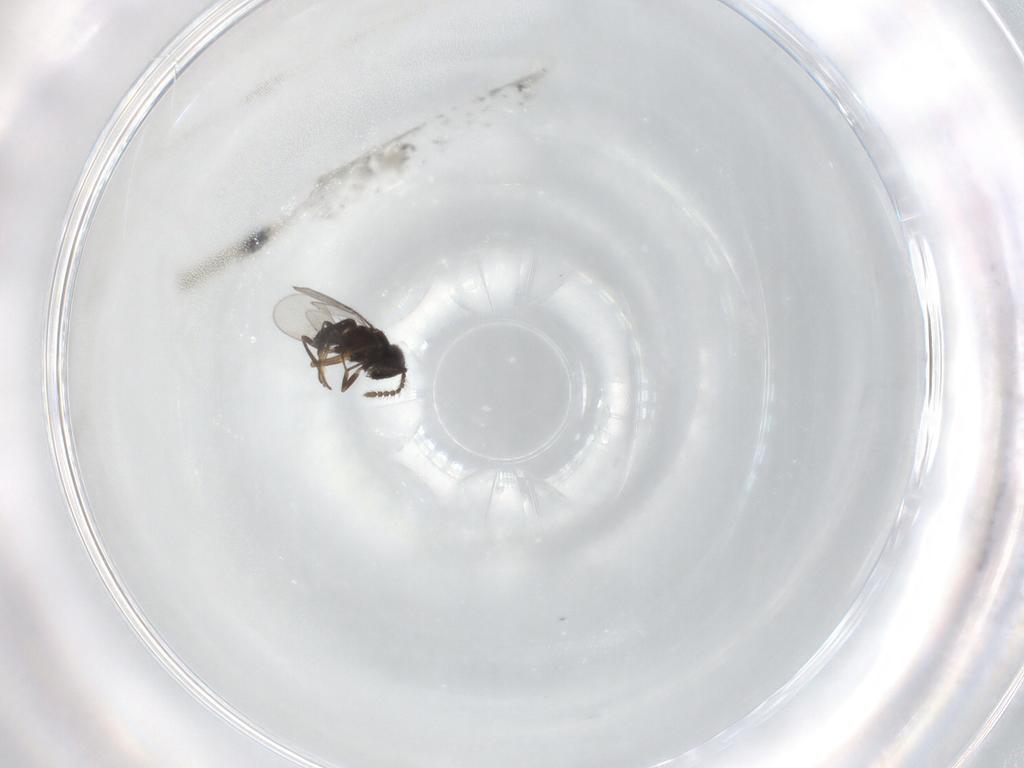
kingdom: Animalia
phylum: Arthropoda
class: Insecta
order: Hymenoptera
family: Encyrtidae
